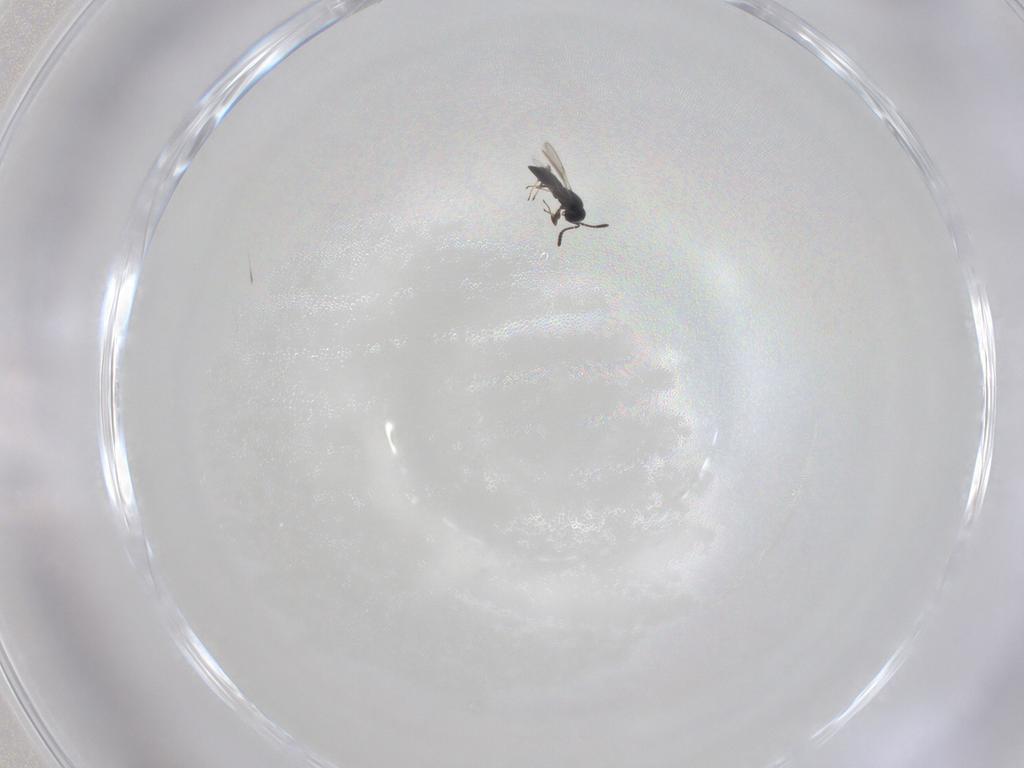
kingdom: Animalia
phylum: Arthropoda
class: Insecta
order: Hymenoptera
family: Scelionidae
